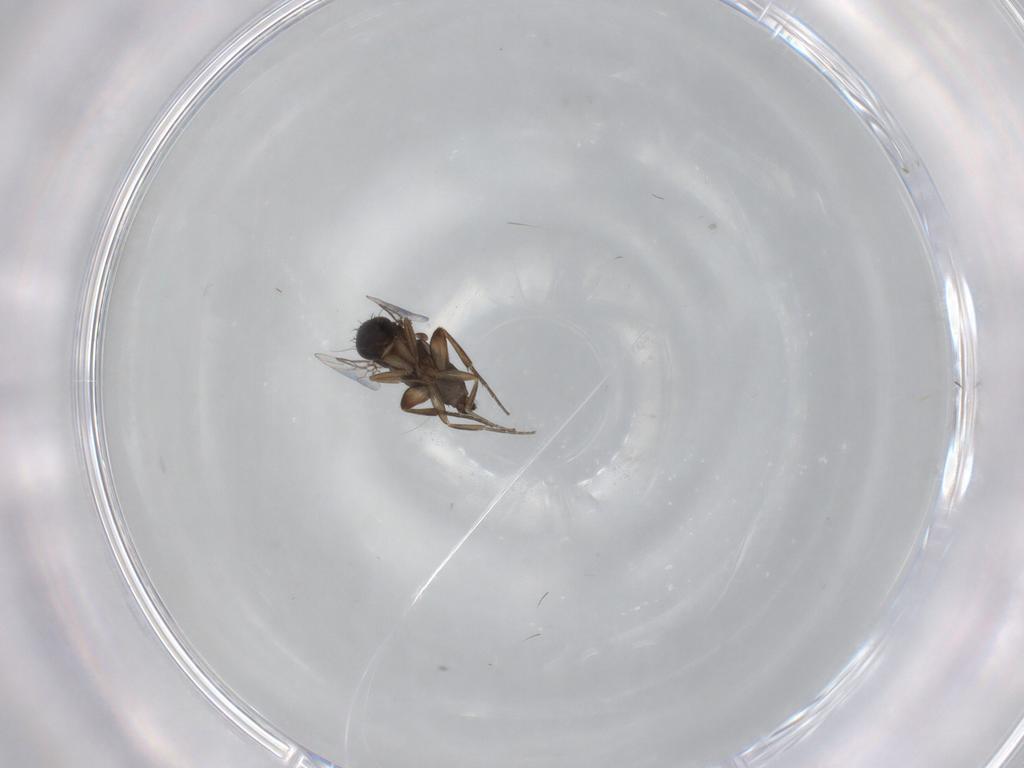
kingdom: Animalia
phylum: Arthropoda
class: Insecta
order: Diptera
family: Phoridae
